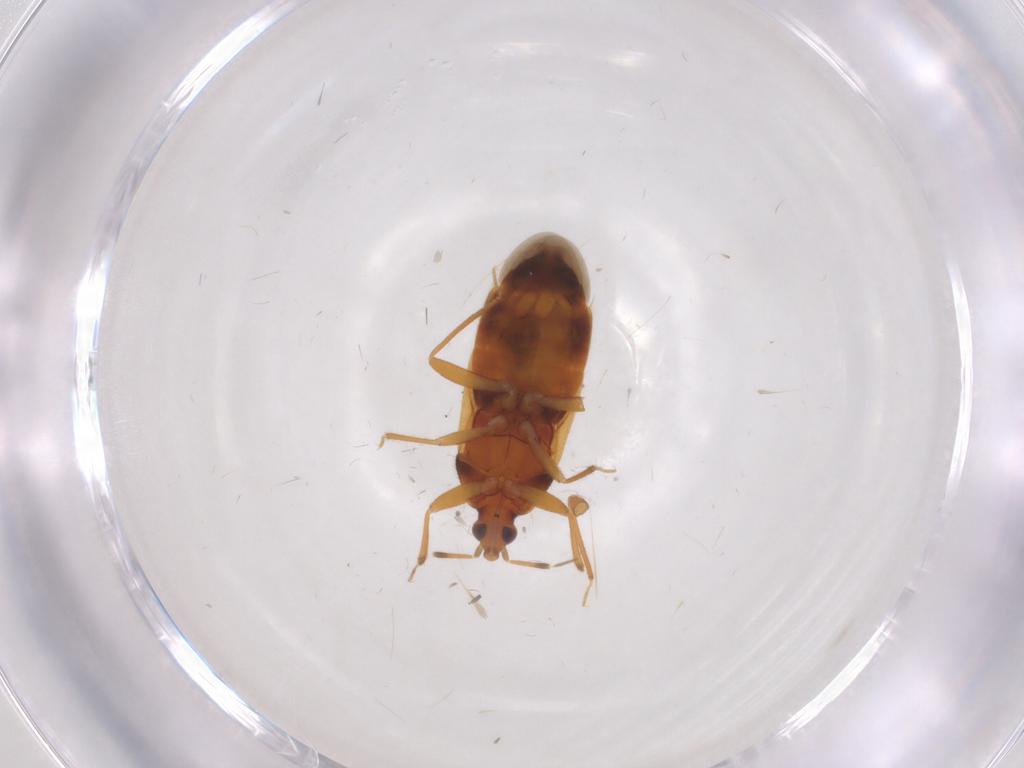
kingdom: Animalia
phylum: Arthropoda
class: Insecta
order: Hemiptera
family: Anthocoridae
